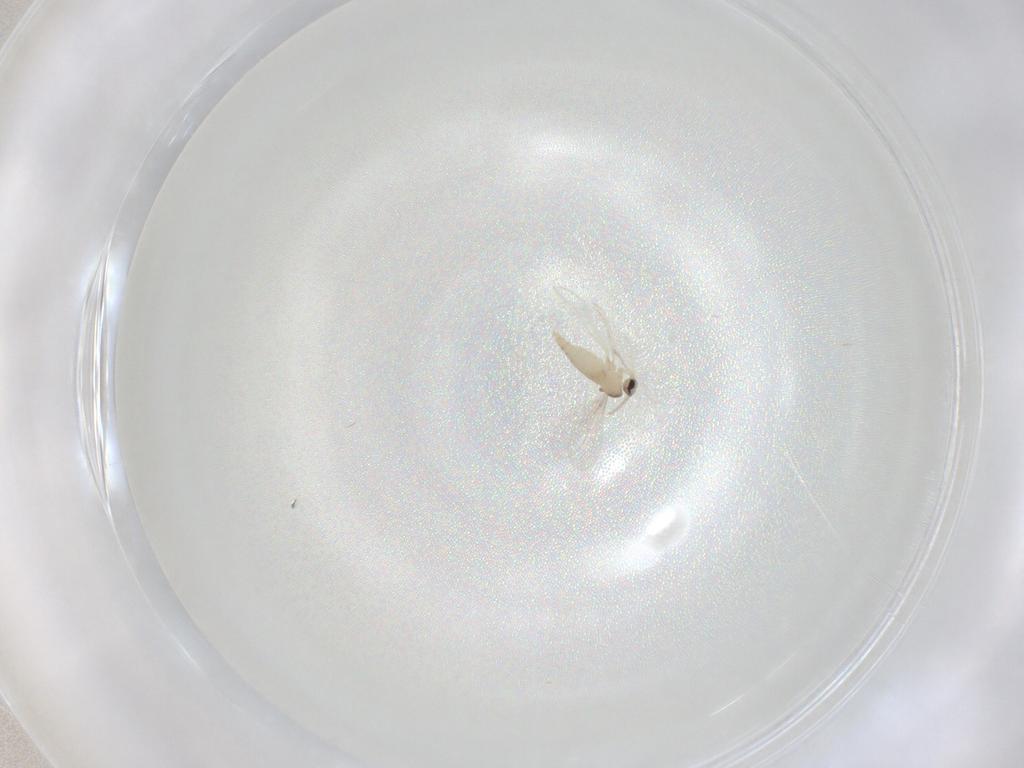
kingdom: Animalia
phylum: Arthropoda
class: Insecta
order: Diptera
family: Cecidomyiidae
